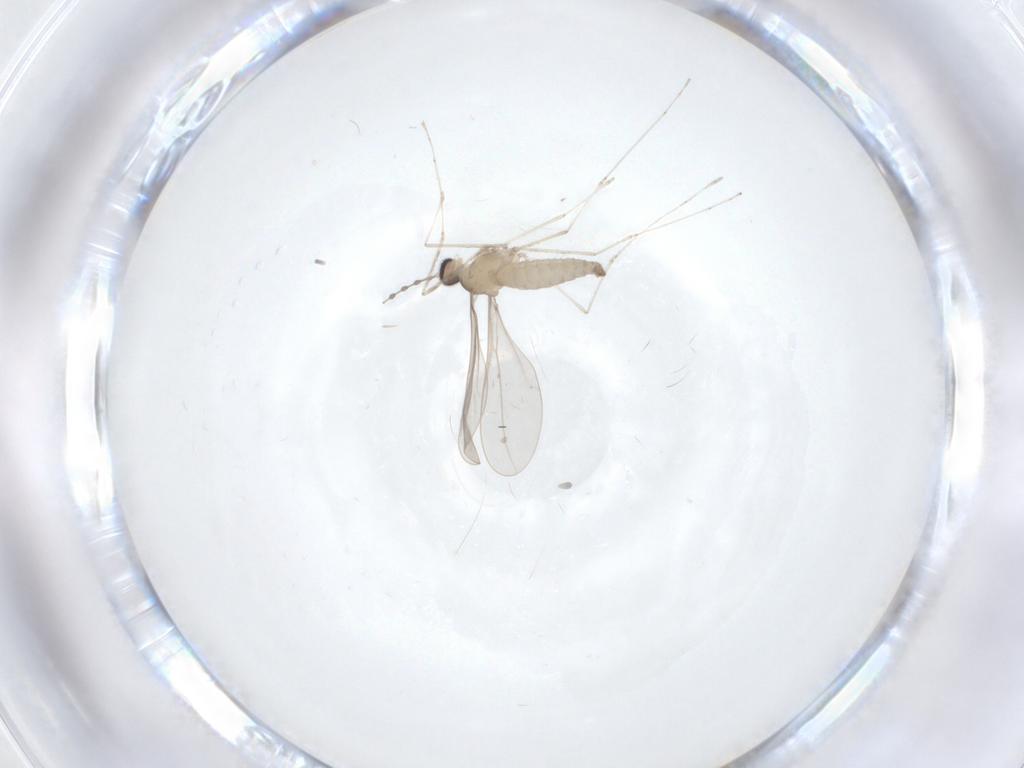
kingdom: Animalia
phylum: Arthropoda
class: Insecta
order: Diptera
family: Cecidomyiidae
